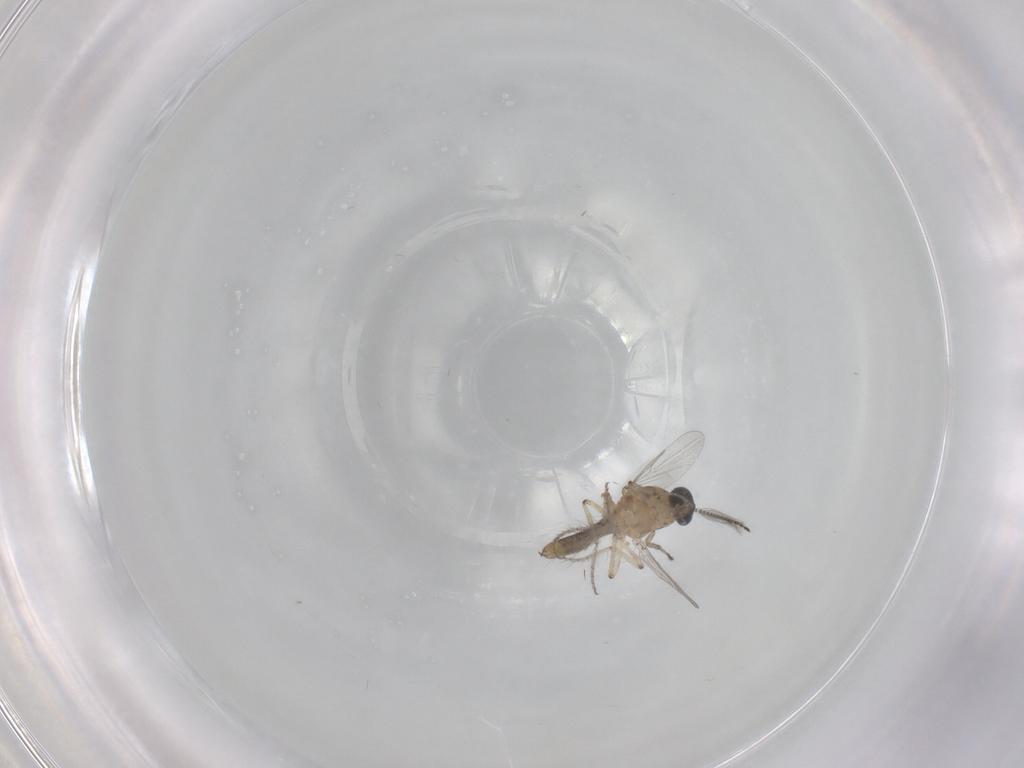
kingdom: Animalia
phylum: Arthropoda
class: Insecta
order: Diptera
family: Ceratopogonidae
